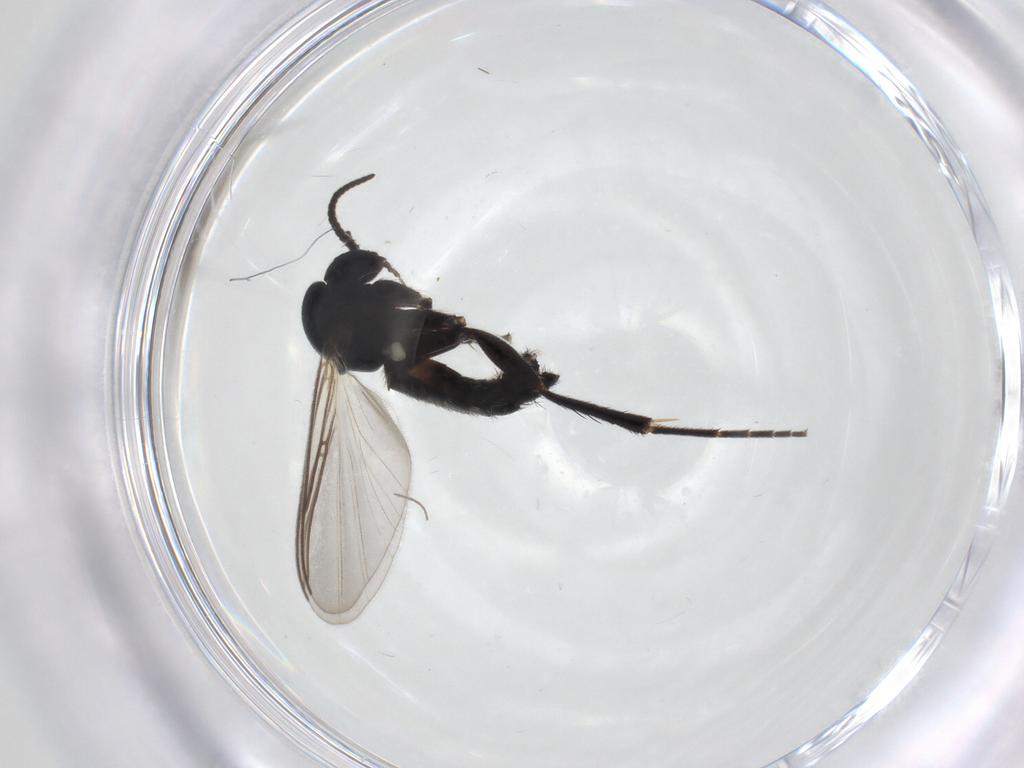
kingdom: Animalia
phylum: Arthropoda
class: Insecta
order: Diptera
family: Mycetophilidae
